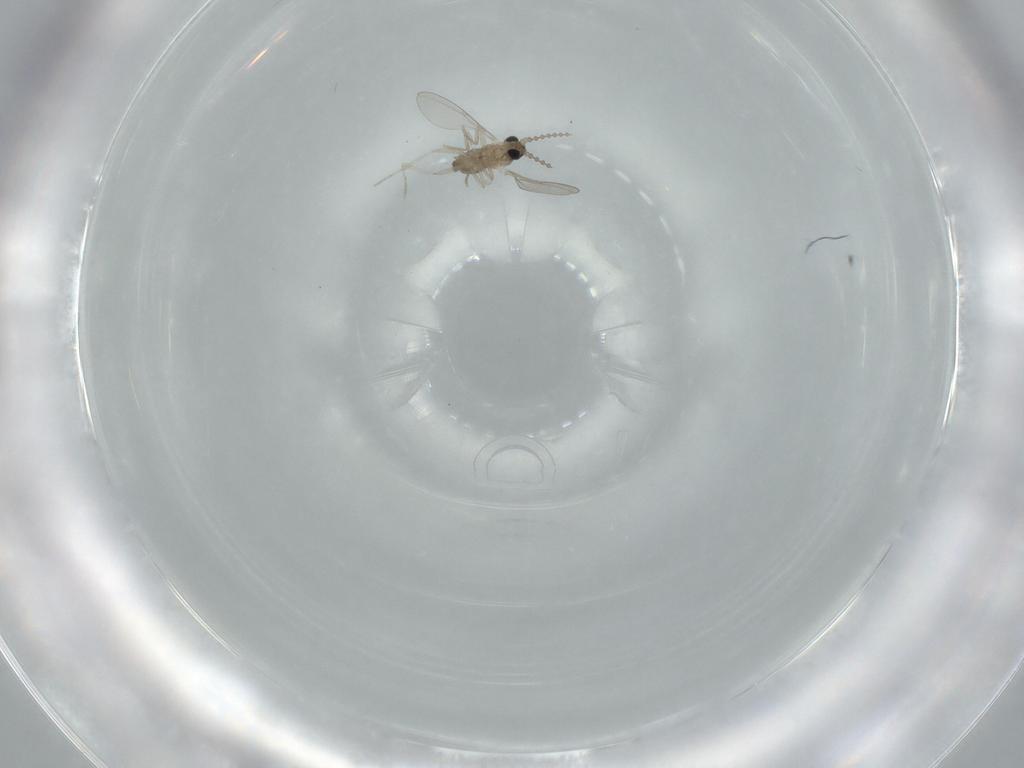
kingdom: Animalia
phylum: Arthropoda
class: Insecta
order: Diptera
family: Chironomidae
